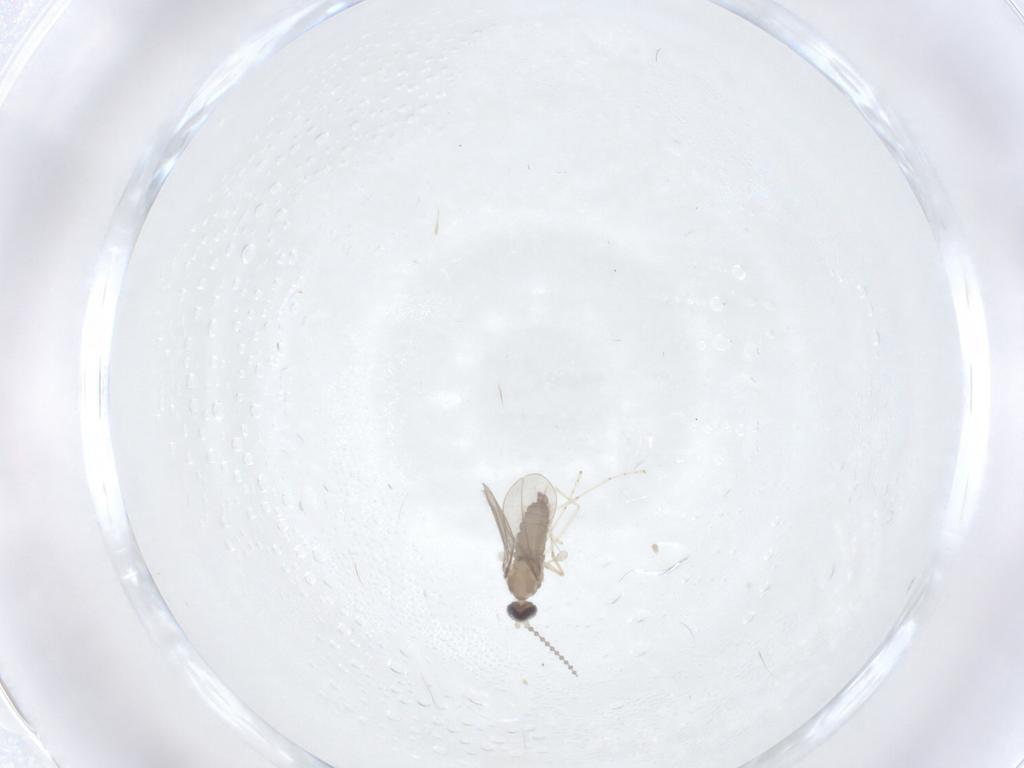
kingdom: Animalia
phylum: Arthropoda
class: Insecta
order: Diptera
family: Cecidomyiidae
